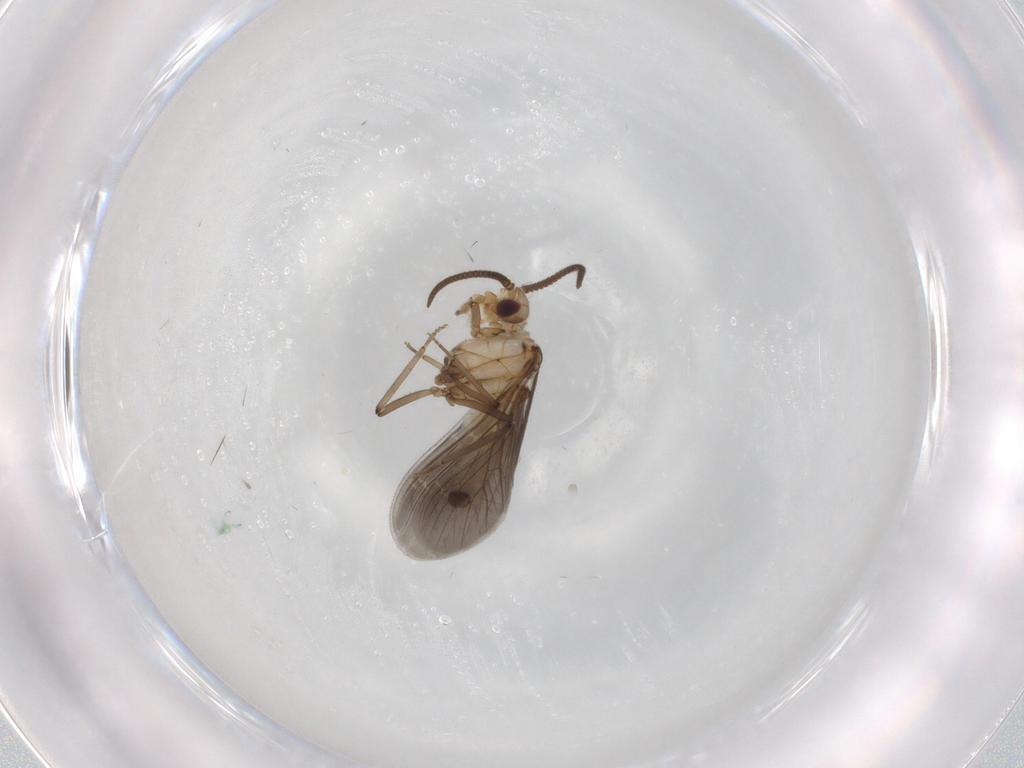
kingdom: Animalia
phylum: Arthropoda
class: Insecta
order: Neuroptera
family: Coniopterygidae
